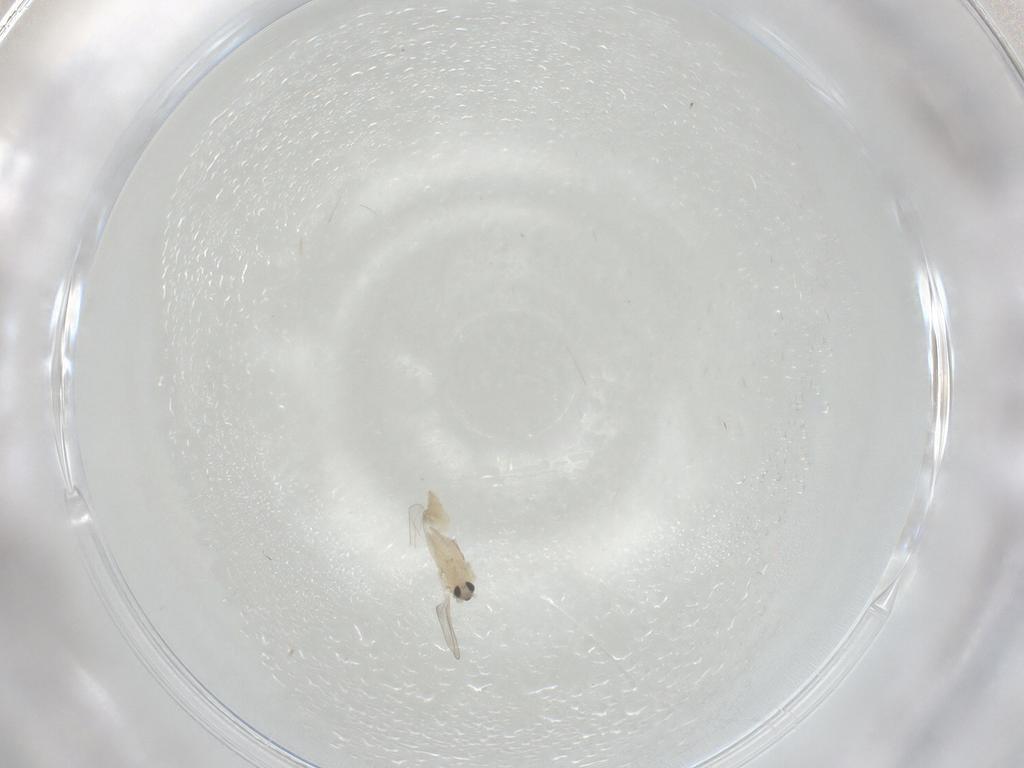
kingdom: Animalia
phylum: Arthropoda
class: Insecta
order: Diptera
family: Cecidomyiidae
